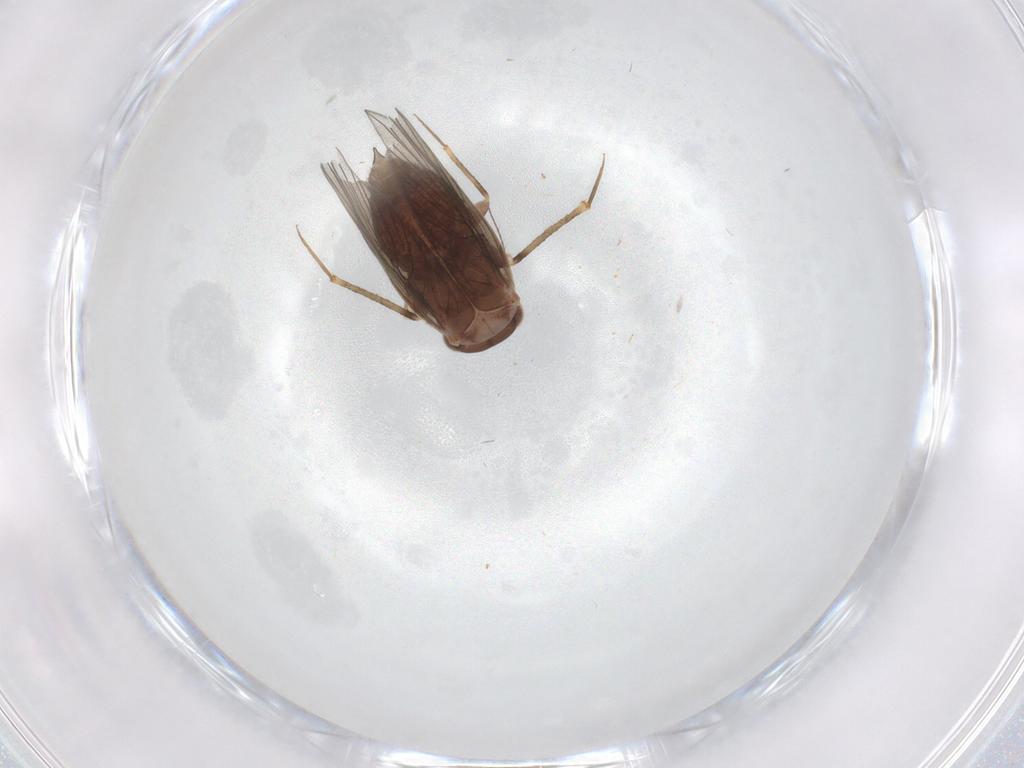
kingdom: Animalia
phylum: Arthropoda
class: Insecta
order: Psocodea
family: Lepidopsocidae
